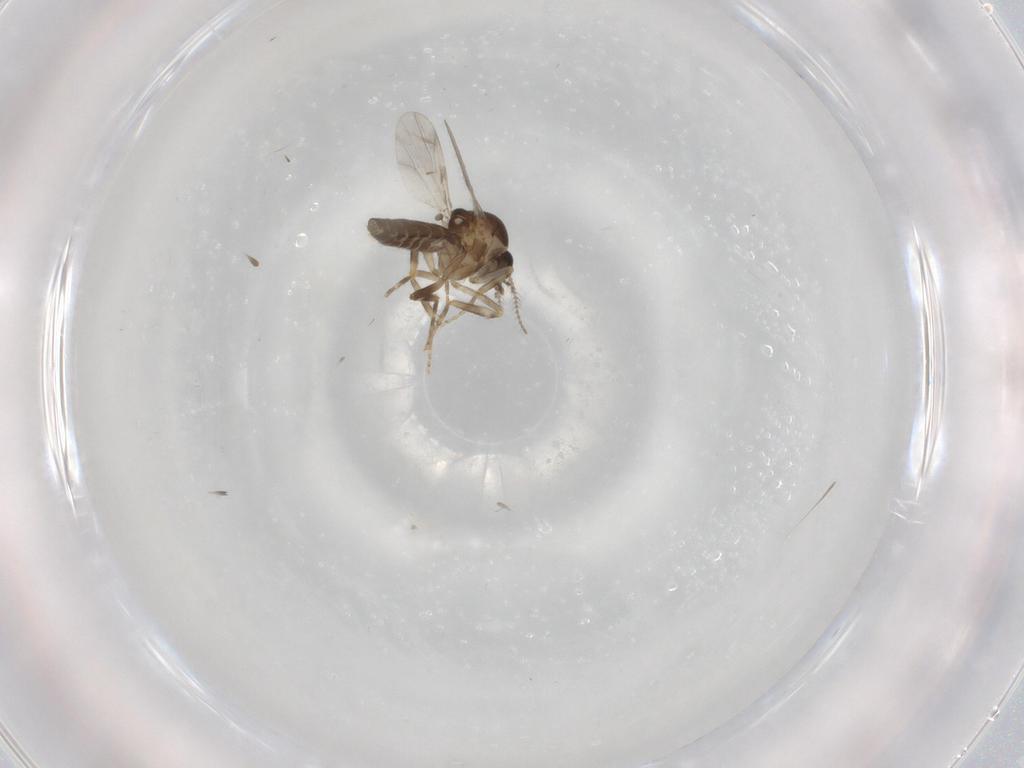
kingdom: Animalia
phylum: Arthropoda
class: Insecta
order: Diptera
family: Ceratopogonidae
